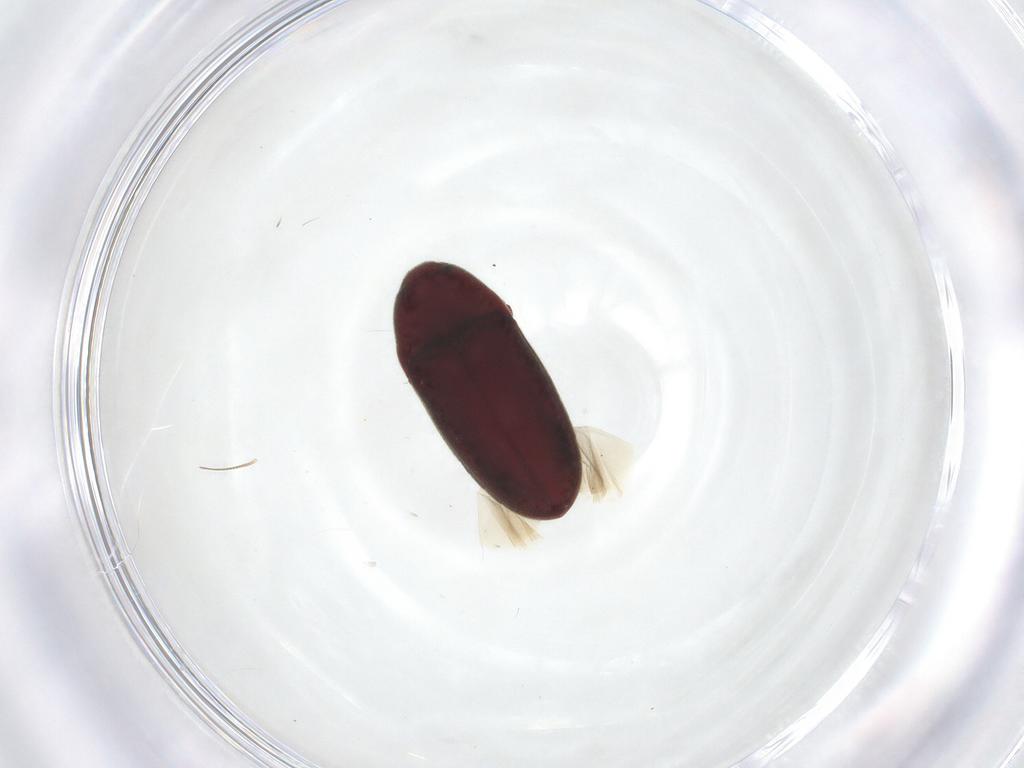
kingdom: Animalia
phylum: Arthropoda
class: Insecta
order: Coleoptera
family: Throscidae
